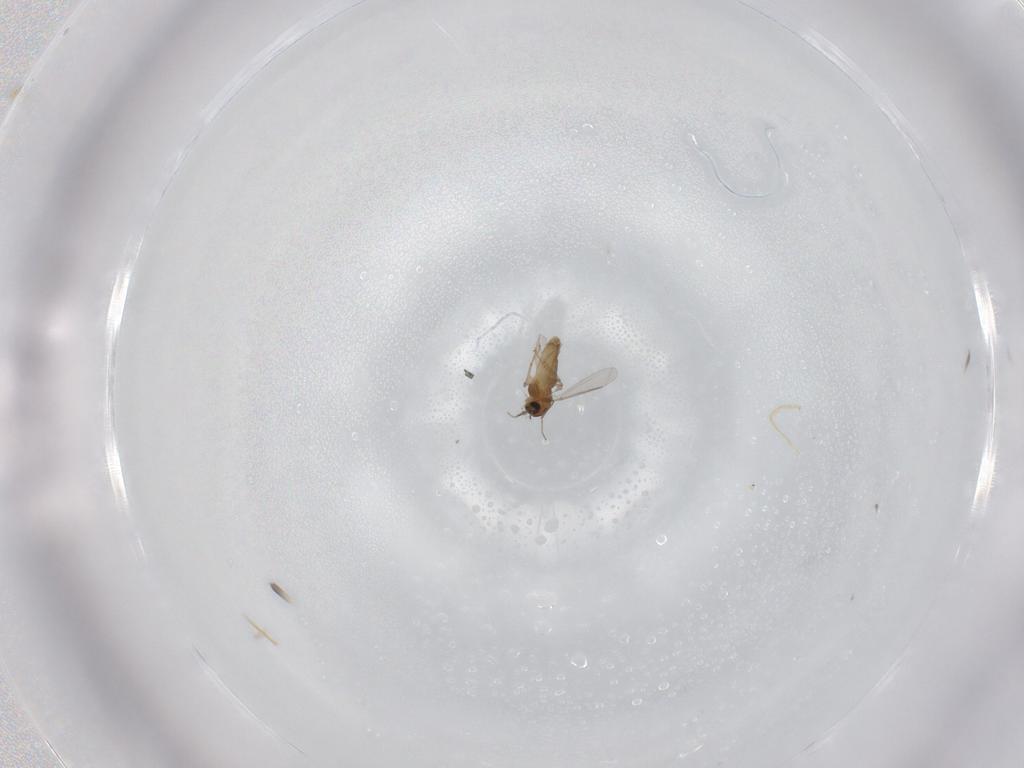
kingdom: Animalia
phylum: Arthropoda
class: Insecta
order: Diptera
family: Chironomidae
